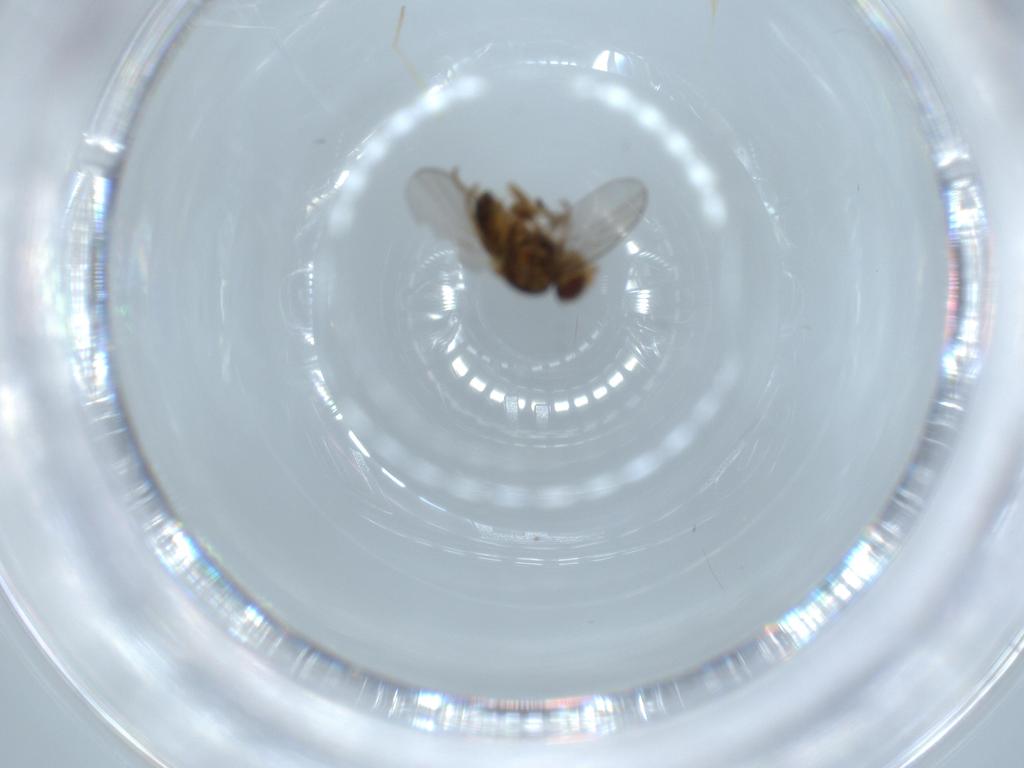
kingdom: Animalia
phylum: Arthropoda
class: Insecta
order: Diptera
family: Chloropidae
